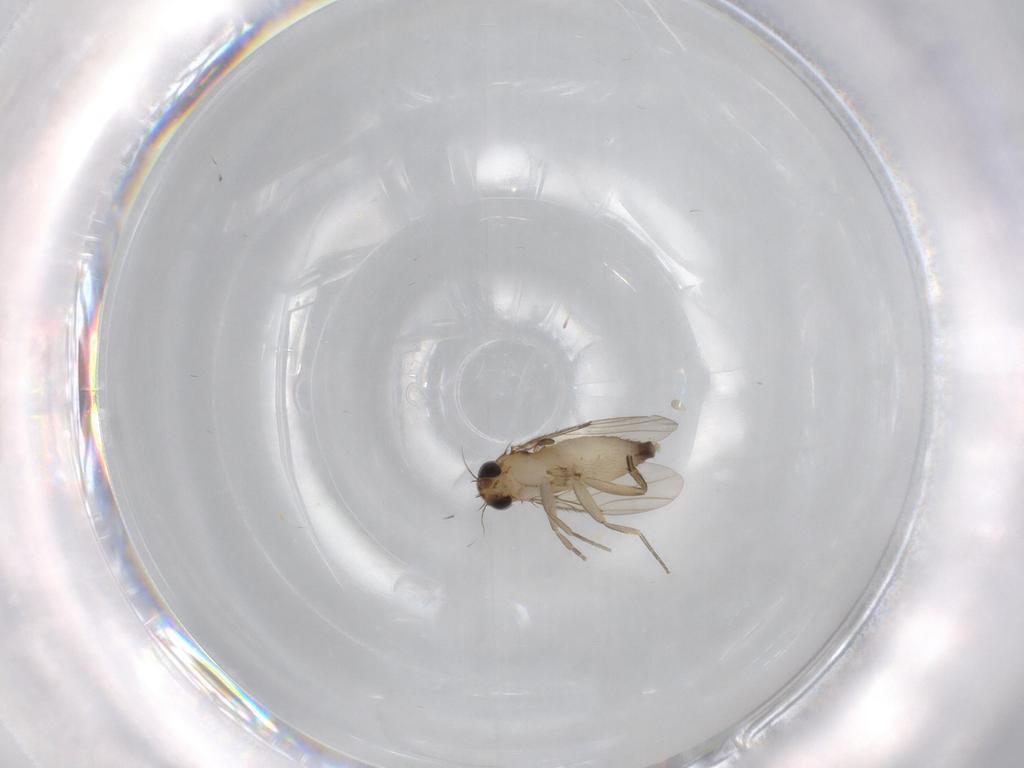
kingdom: Animalia
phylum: Arthropoda
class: Insecta
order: Diptera
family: Phoridae
